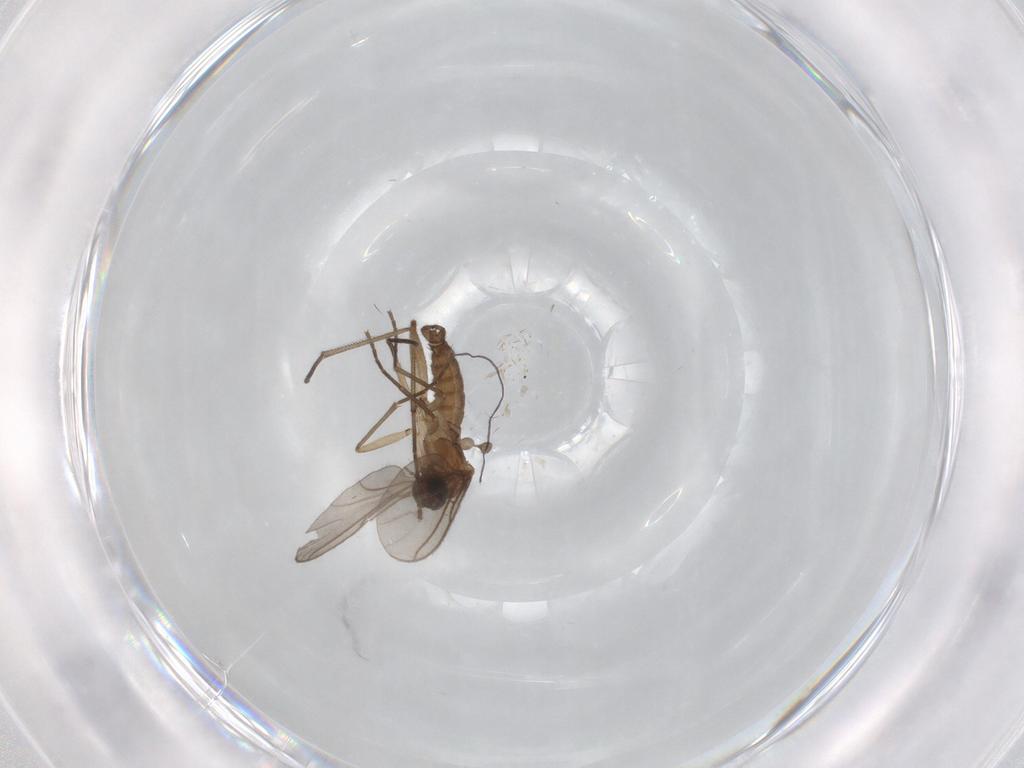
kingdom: Animalia
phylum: Arthropoda
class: Insecta
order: Diptera
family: Sciaridae
